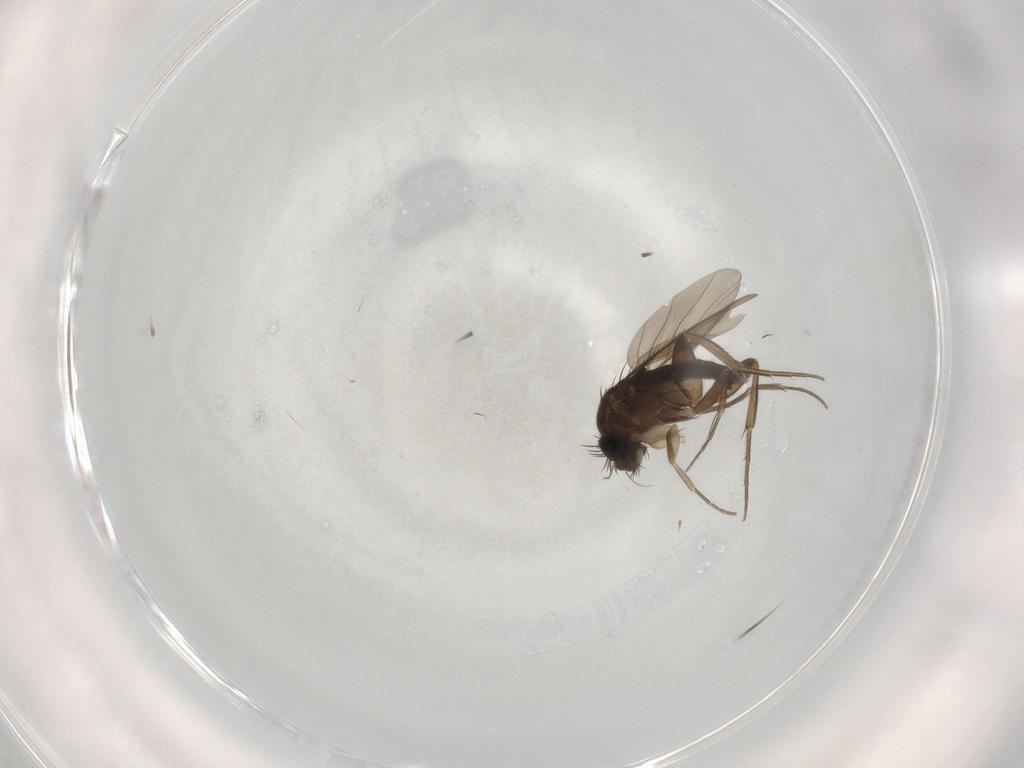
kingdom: Animalia
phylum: Arthropoda
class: Insecta
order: Diptera
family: Phoridae
